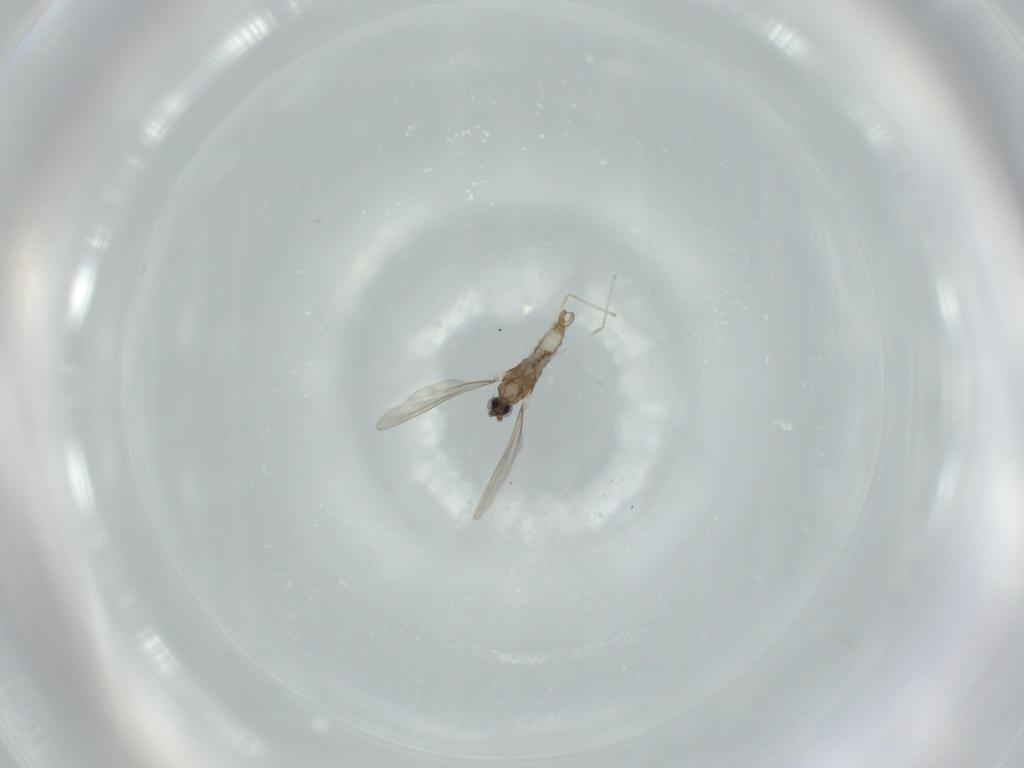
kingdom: Animalia
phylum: Arthropoda
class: Insecta
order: Diptera
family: Cecidomyiidae
